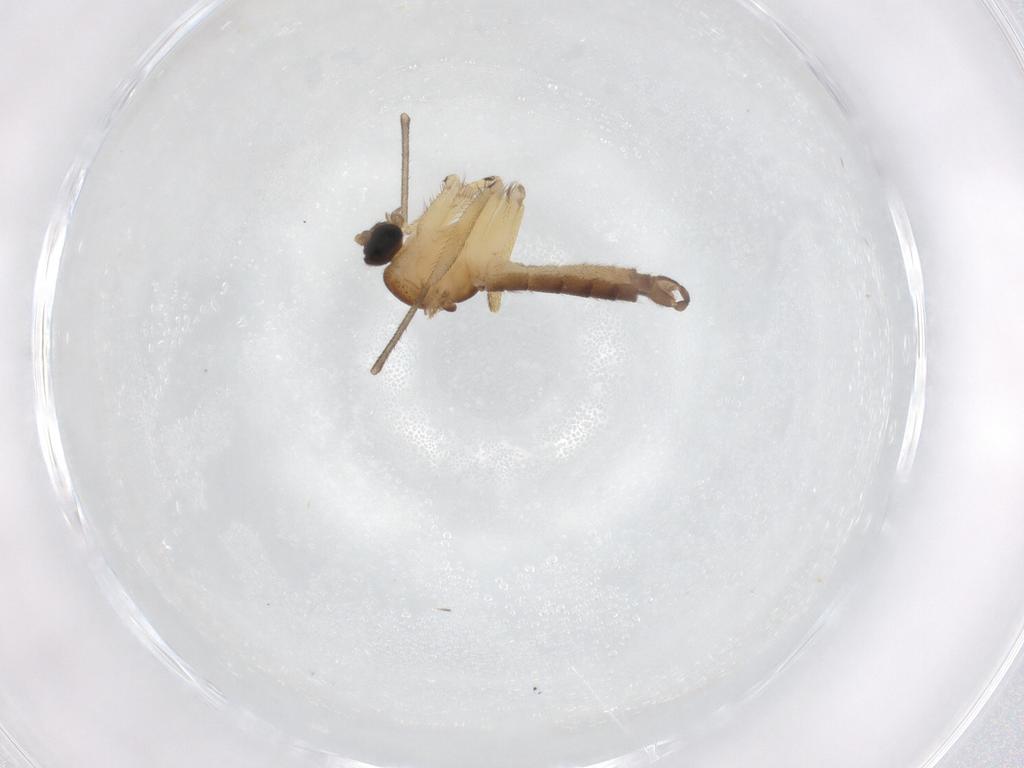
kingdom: Animalia
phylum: Arthropoda
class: Insecta
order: Diptera
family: Sciaridae
